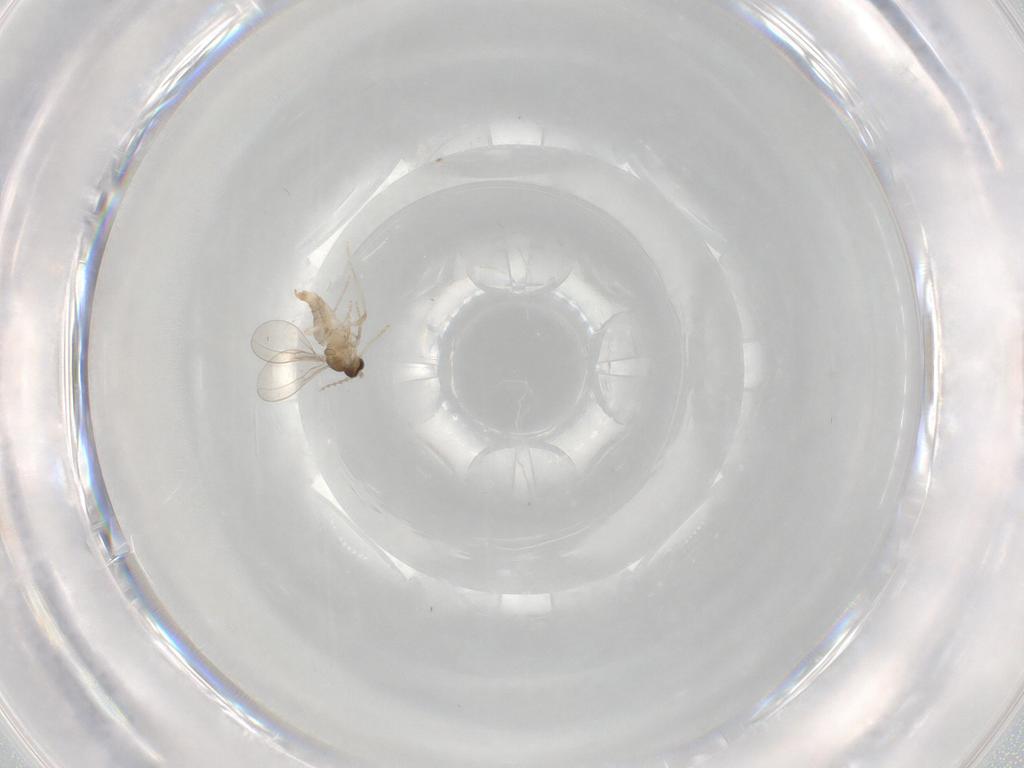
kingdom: Animalia
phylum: Arthropoda
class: Insecta
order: Diptera
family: Cecidomyiidae
